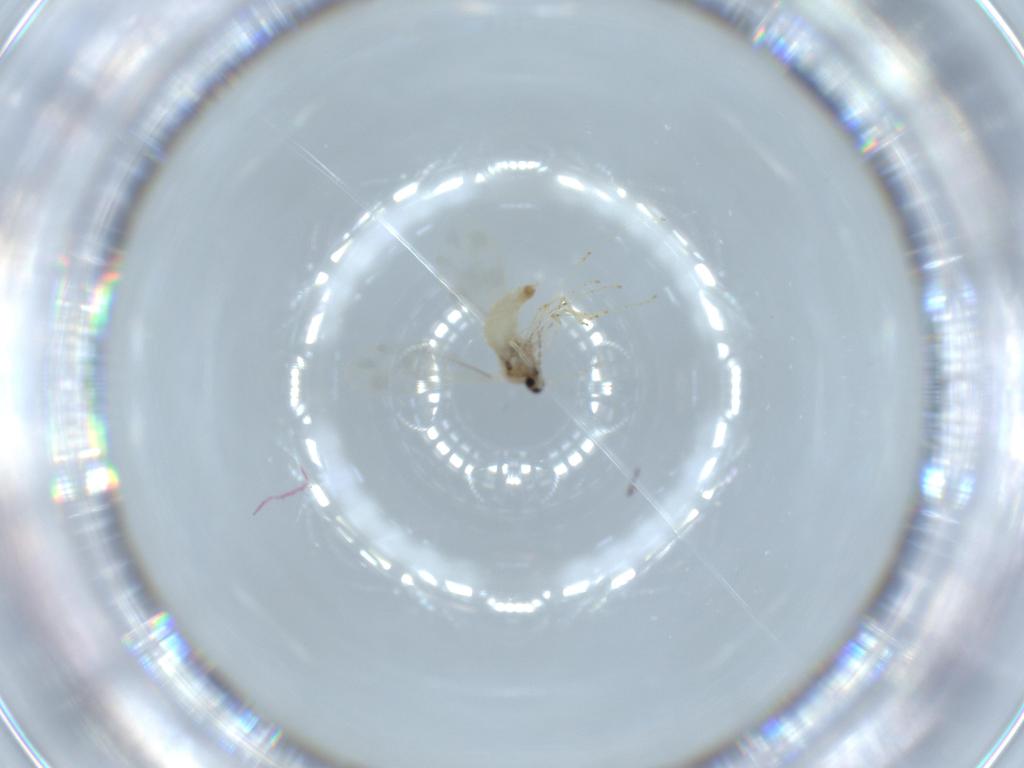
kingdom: Animalia
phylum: Arthropoda
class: Insecta
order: Diptera
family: Cecidomyiidae
